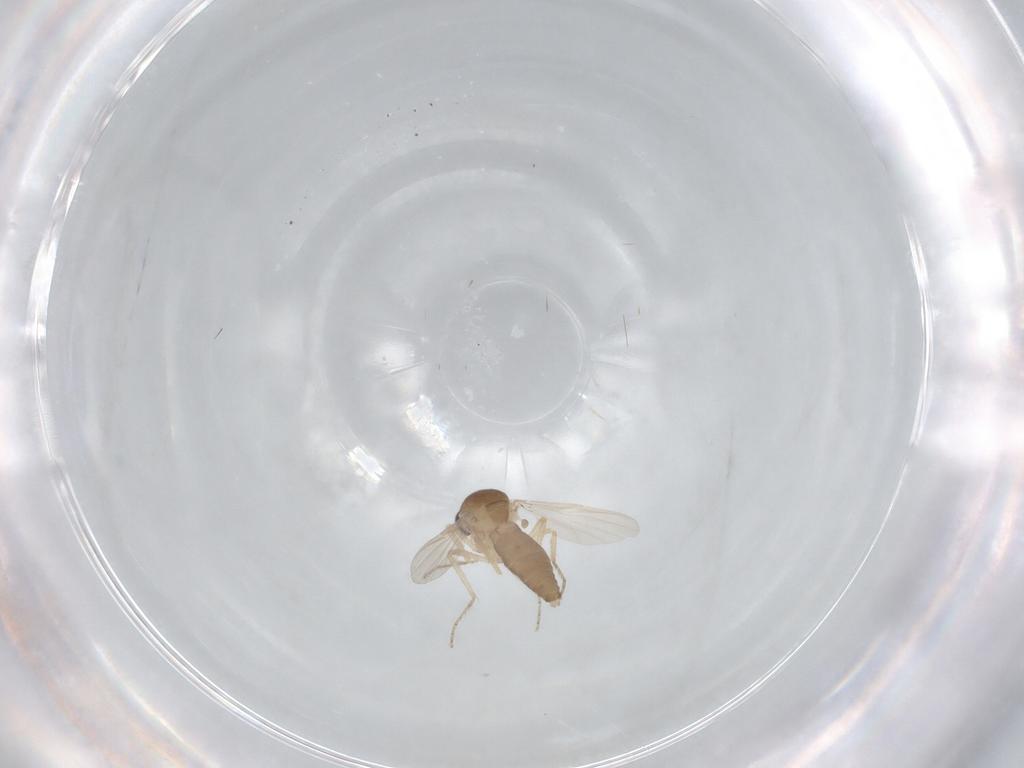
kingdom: Animalia
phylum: Arthropoda
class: Insecta
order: Diptera
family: Ceratopogonidae
